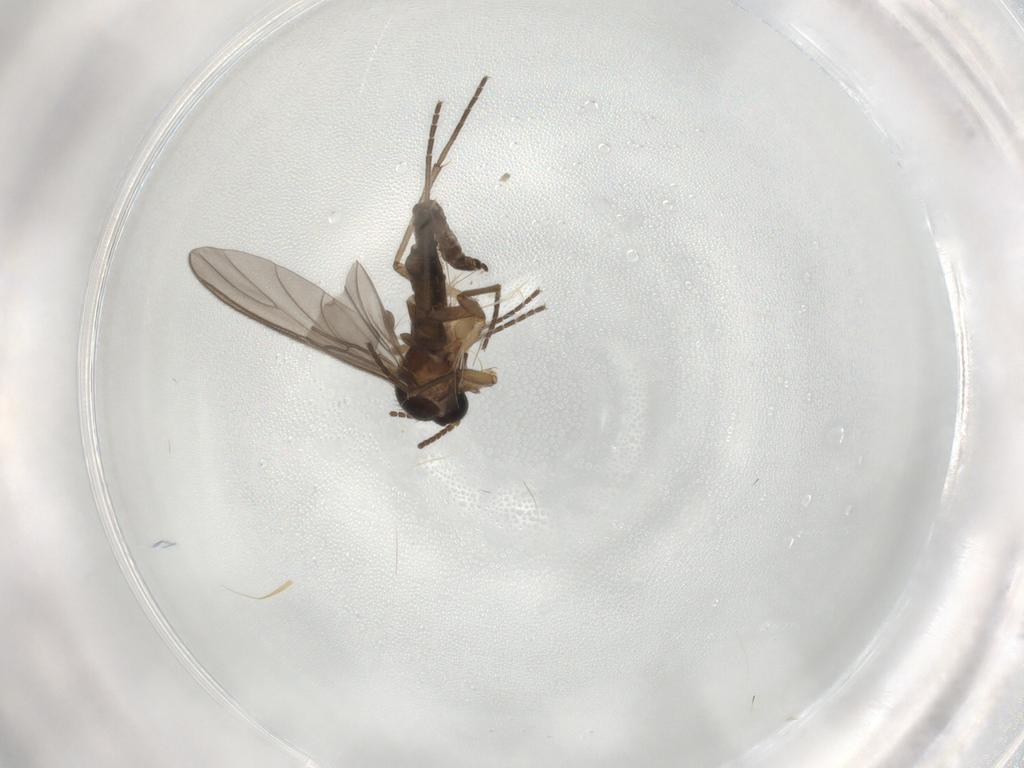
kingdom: Animalia
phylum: Arthropoda
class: Insecta
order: Diptera
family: Sciaridae
